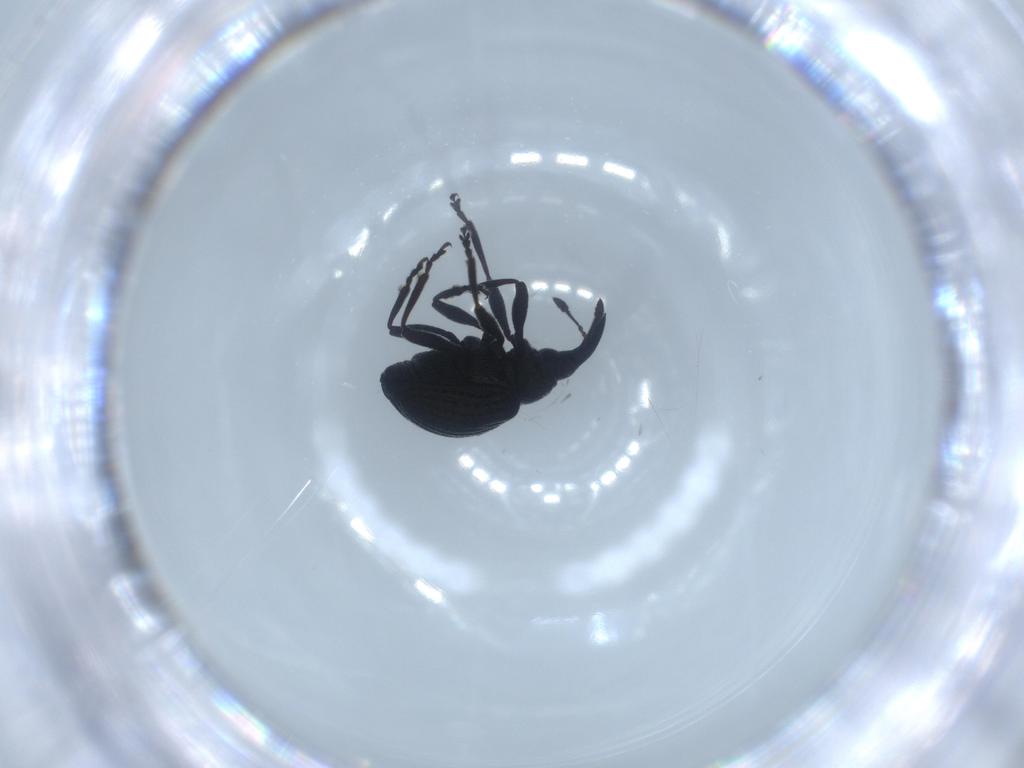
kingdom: Animalia
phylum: Arthropoda
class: Insecta
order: Coleoptera
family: Brentidae
